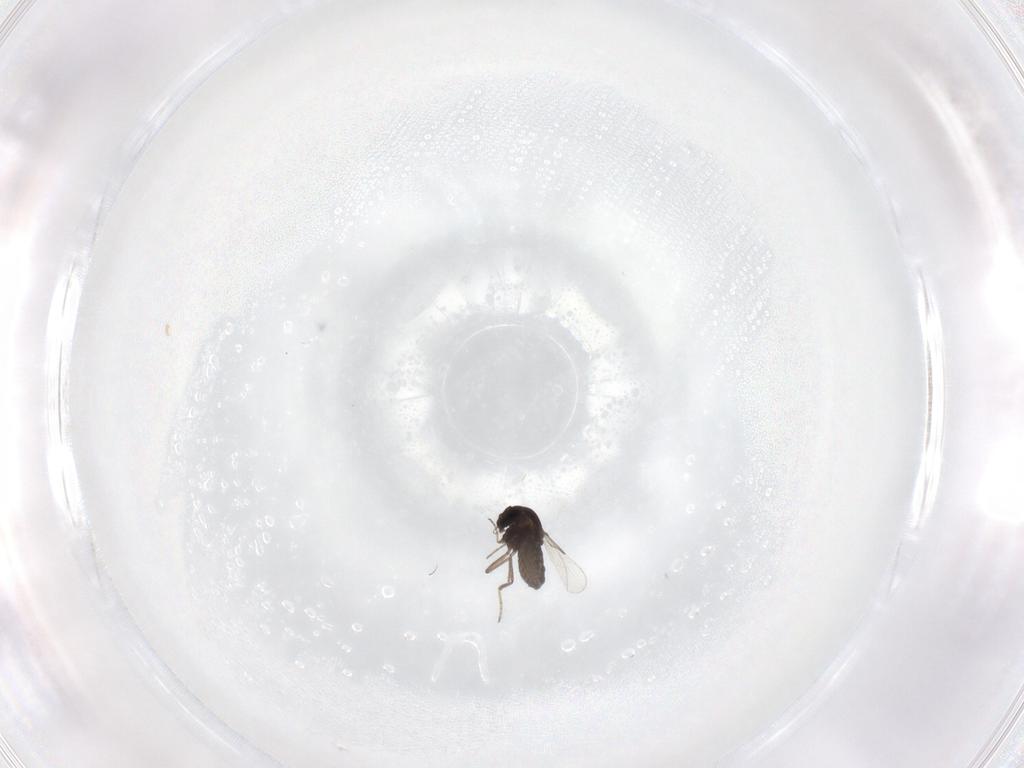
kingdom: Animalia
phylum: Arthropoda
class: Insecta
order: Diptera
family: Ceratopogonidae
